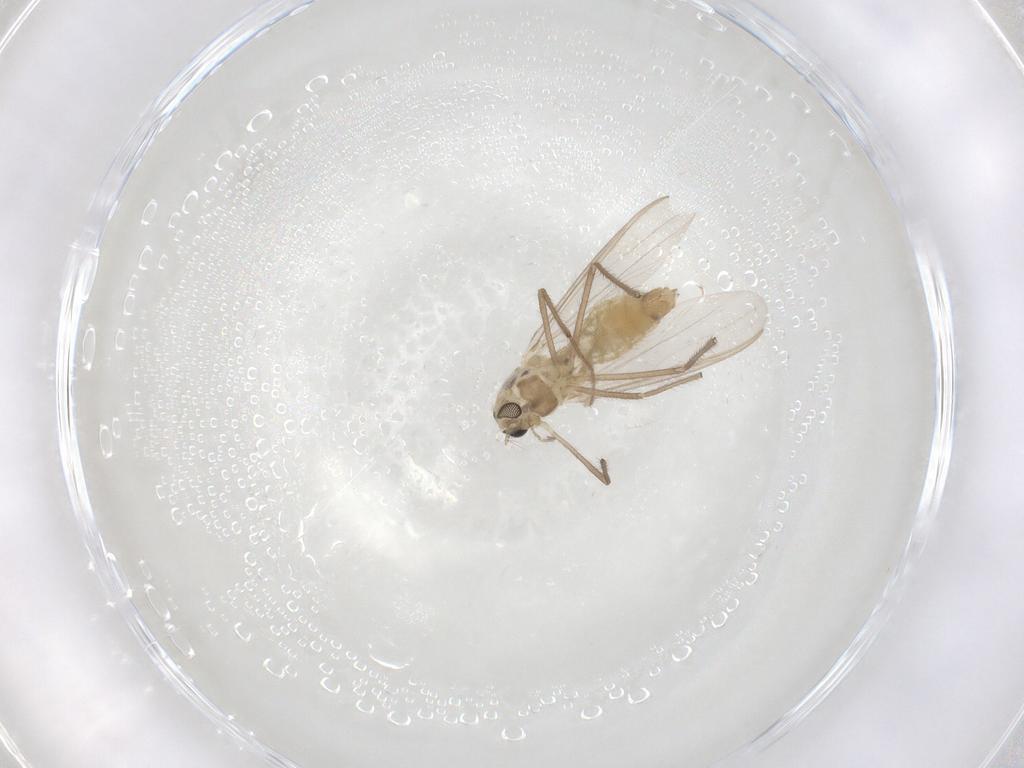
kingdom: Animalia
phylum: Arthropoda
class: Insecta
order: Diptera
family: Chironomidae
